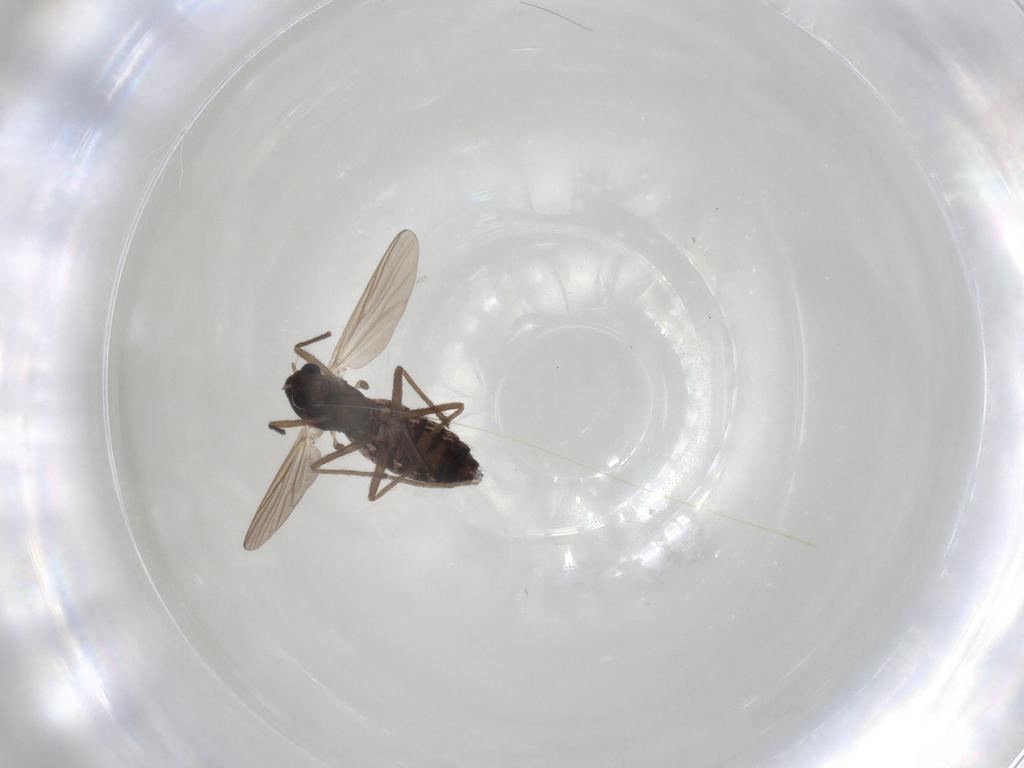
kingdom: Animalia
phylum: Arthropoda
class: Insecta
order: Diptera
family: Chironomidae
